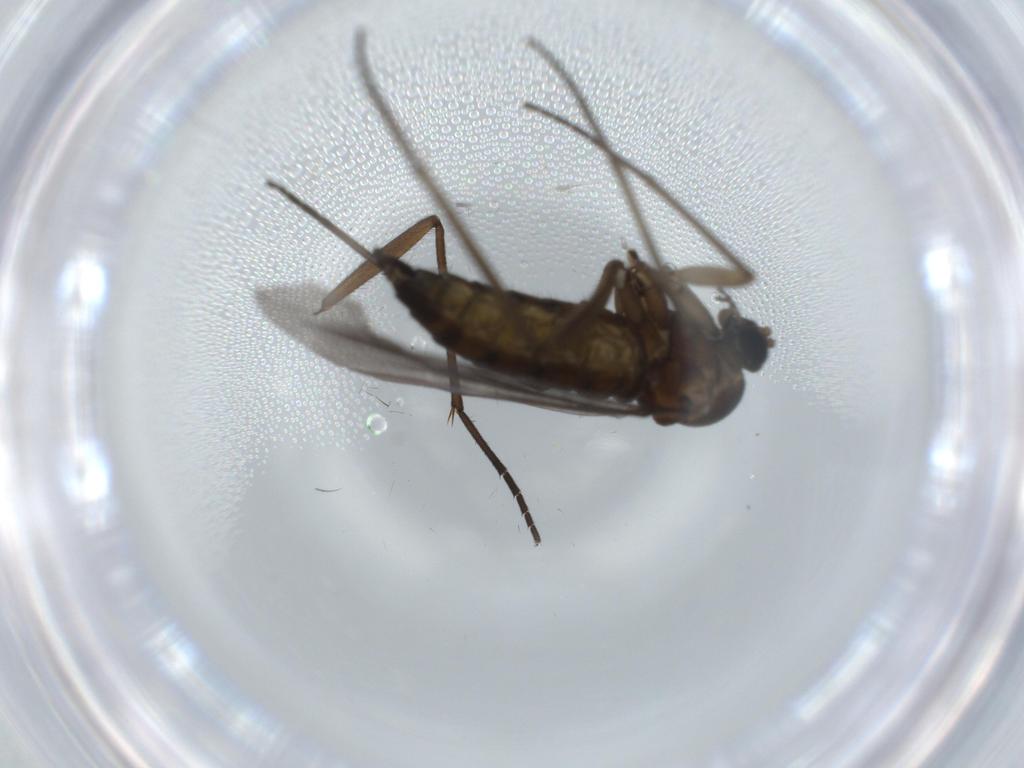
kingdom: Animalia
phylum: Arthropoda
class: Insecta
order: Diptera
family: Sciaridae
